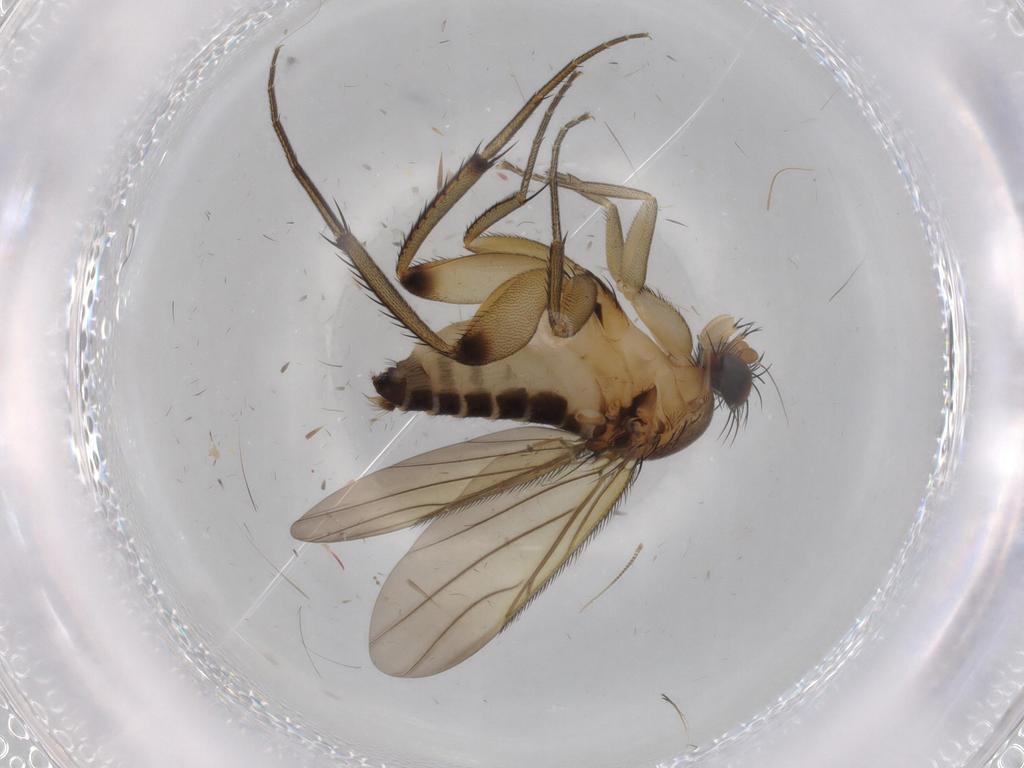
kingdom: Animalia
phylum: Arthropoda
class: Insecta
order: Diptera
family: Phoridae
